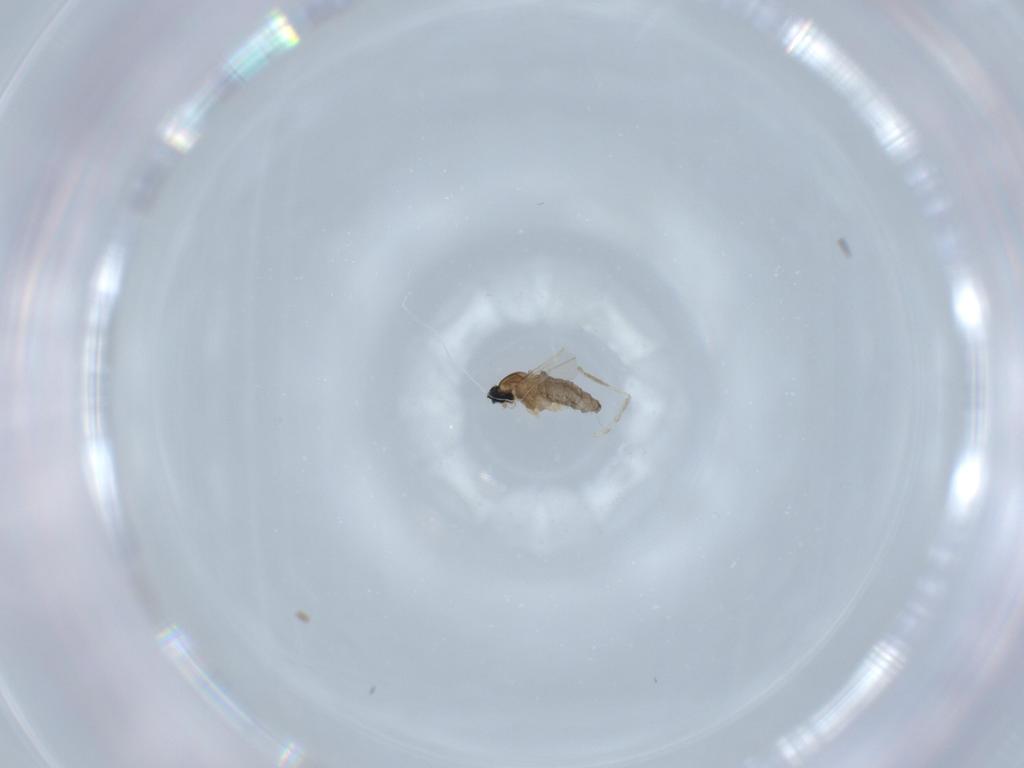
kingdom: Animalia
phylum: Arthropoda
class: Insecta
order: Diptera
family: Cecidomyiidae
